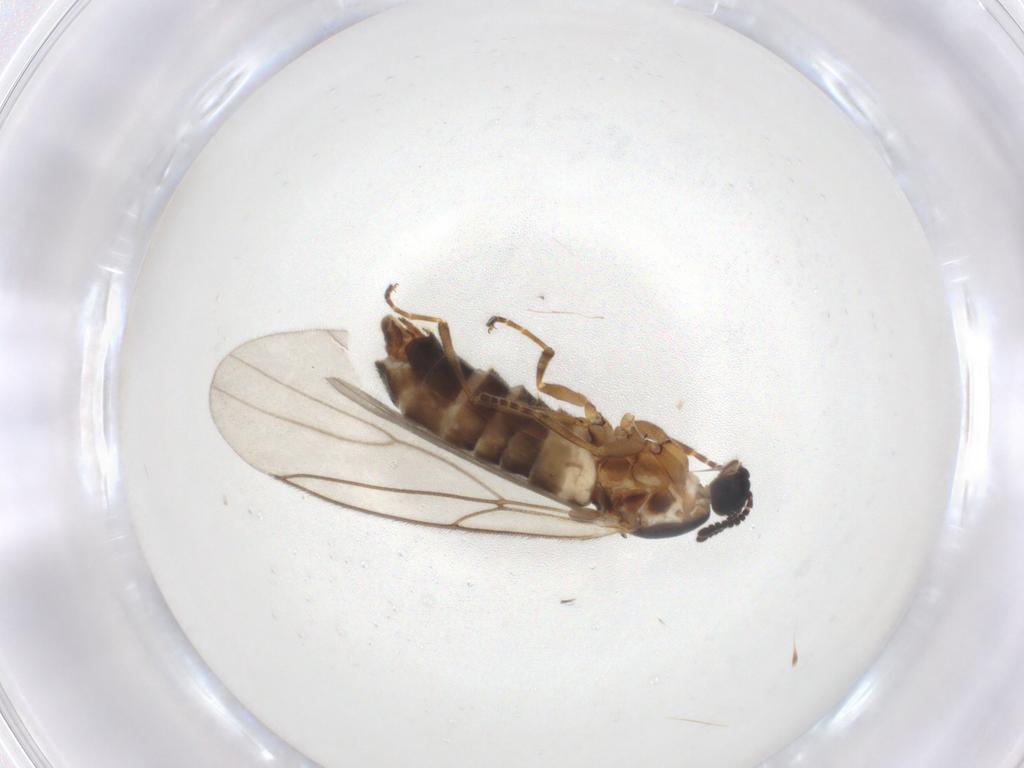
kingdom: Animalia
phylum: Arthropoda
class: Insecta
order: Diptera
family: Scatopsidae
